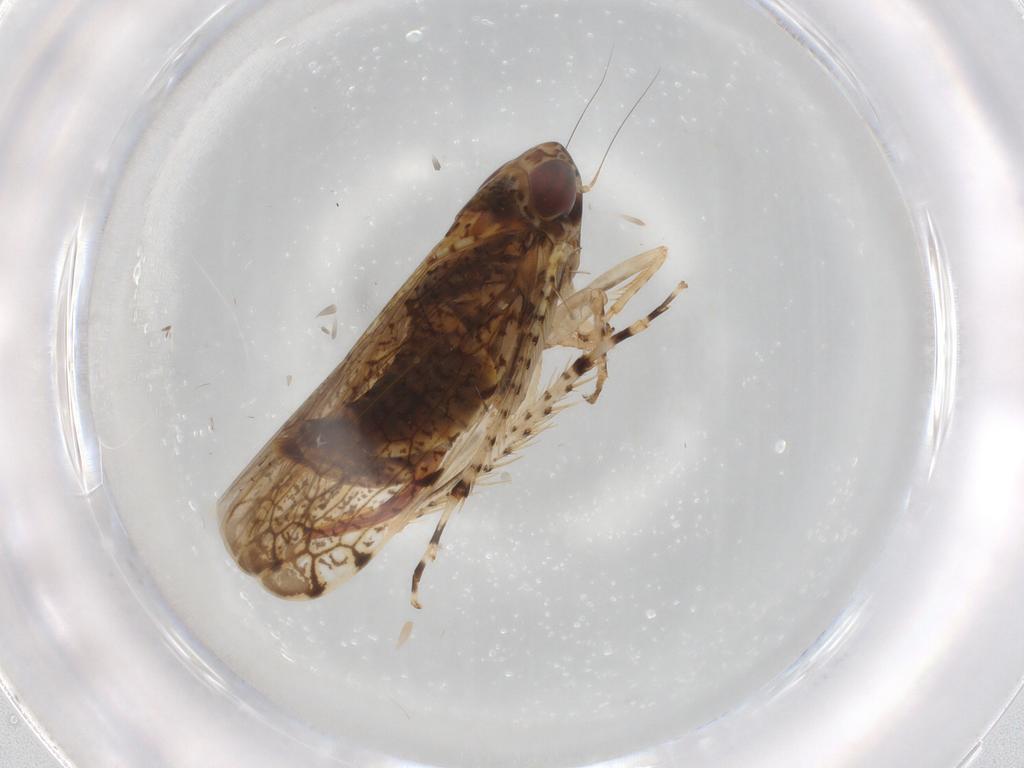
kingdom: Animalia
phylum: Arthropoda
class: Insecta
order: Hemiptera
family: Cicadellidae
